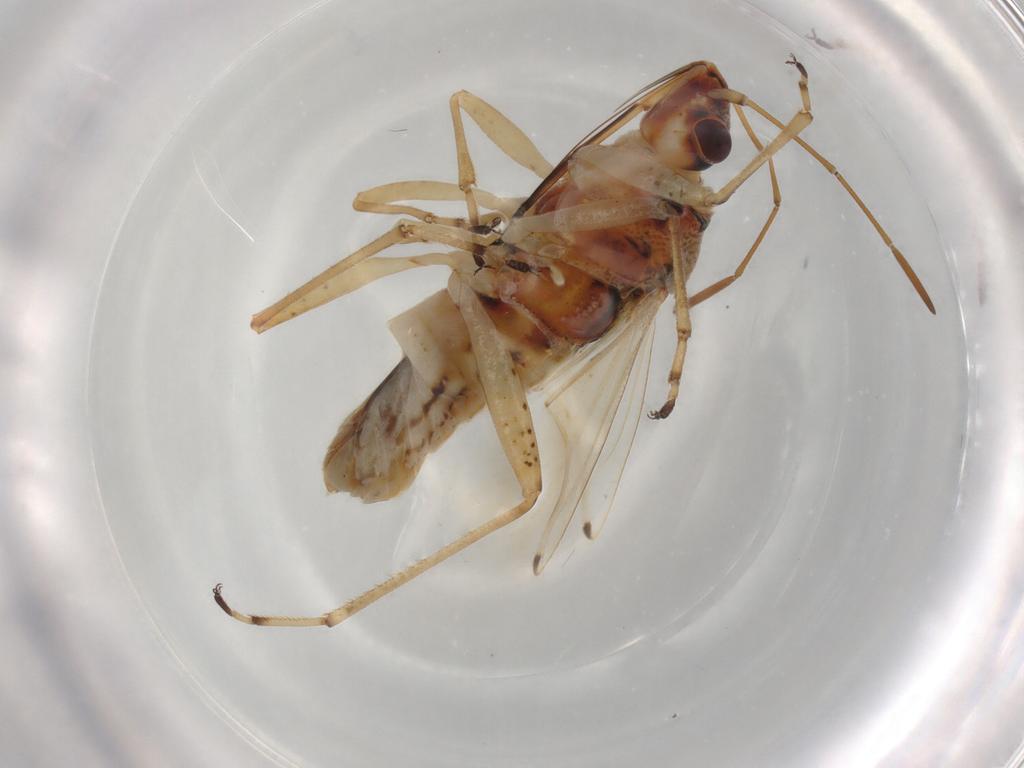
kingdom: Animalia
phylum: Arthropoda
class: Insecta
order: Hemiptera
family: Lygaeidae
